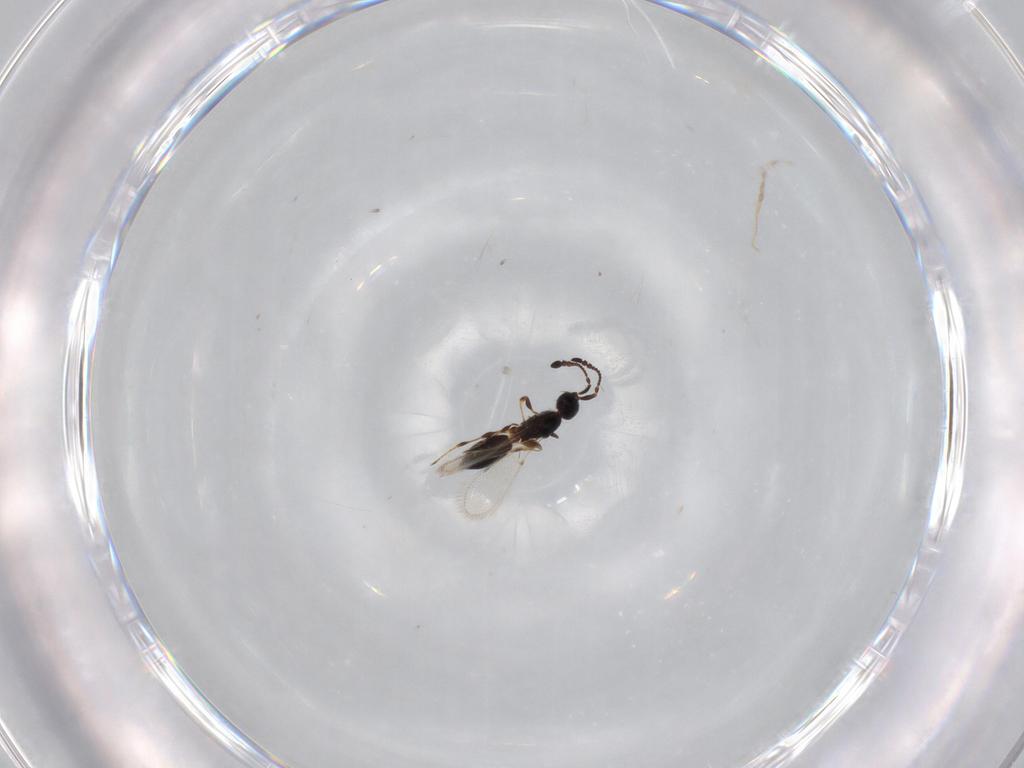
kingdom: Animalia
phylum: Arthropoda
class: Insecta
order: Hymenoptera
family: Diapriidae
